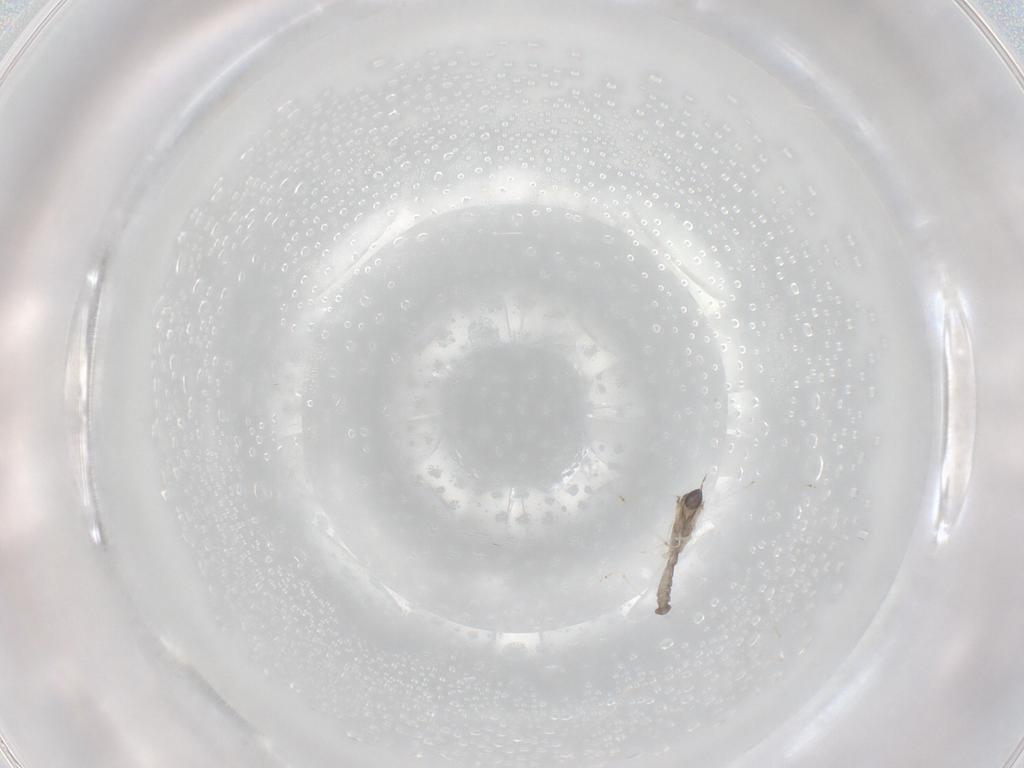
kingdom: Animalia
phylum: Arthropoda
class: Insecta
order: Diptera
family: Cecidomyiidae
